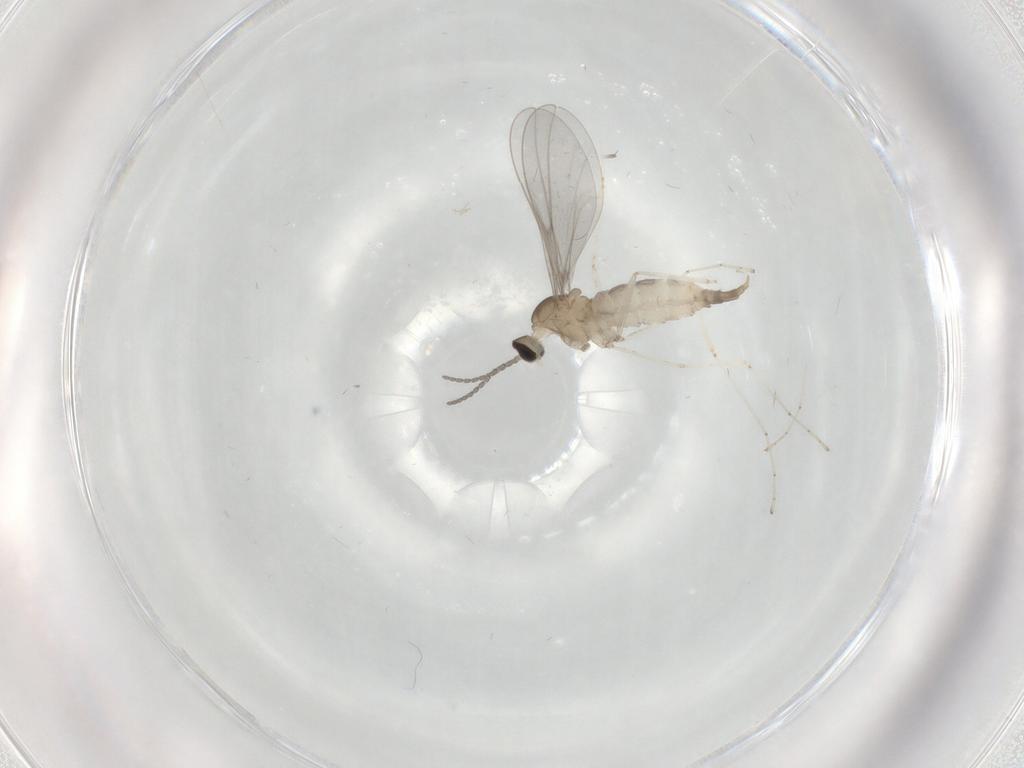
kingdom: Animalia
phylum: Arthropoda
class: Insecta
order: Diptera
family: Cecidomyiidae
